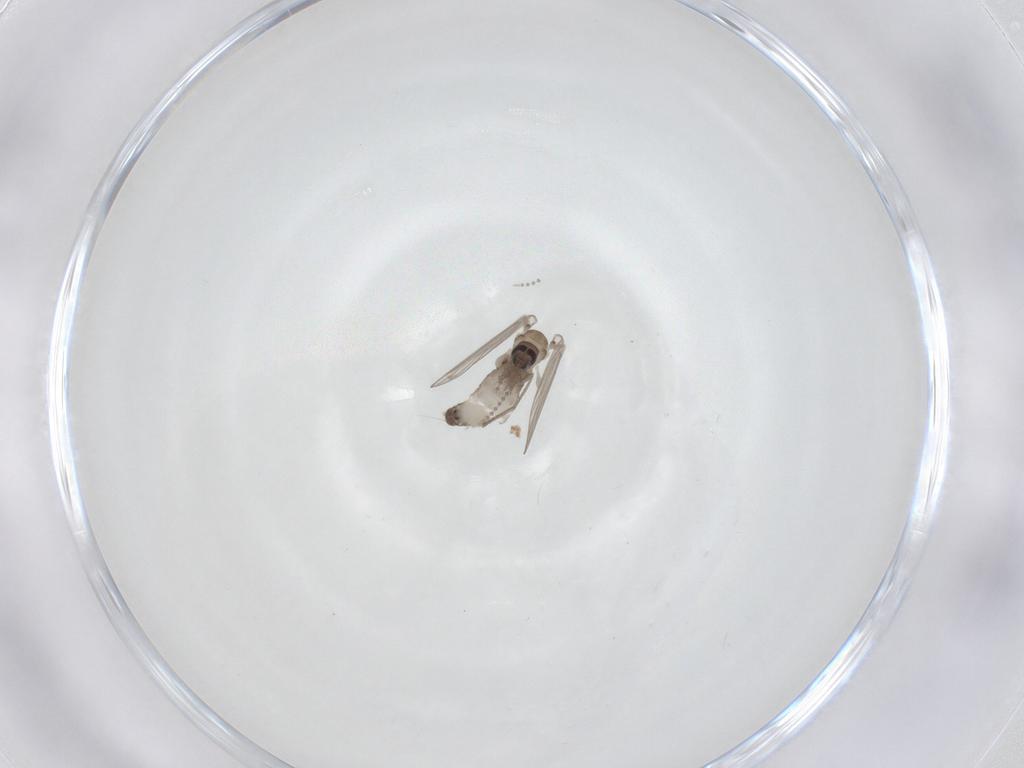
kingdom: Animalia
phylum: Arthropoda
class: Insecta
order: Diptera
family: Psychodidae
